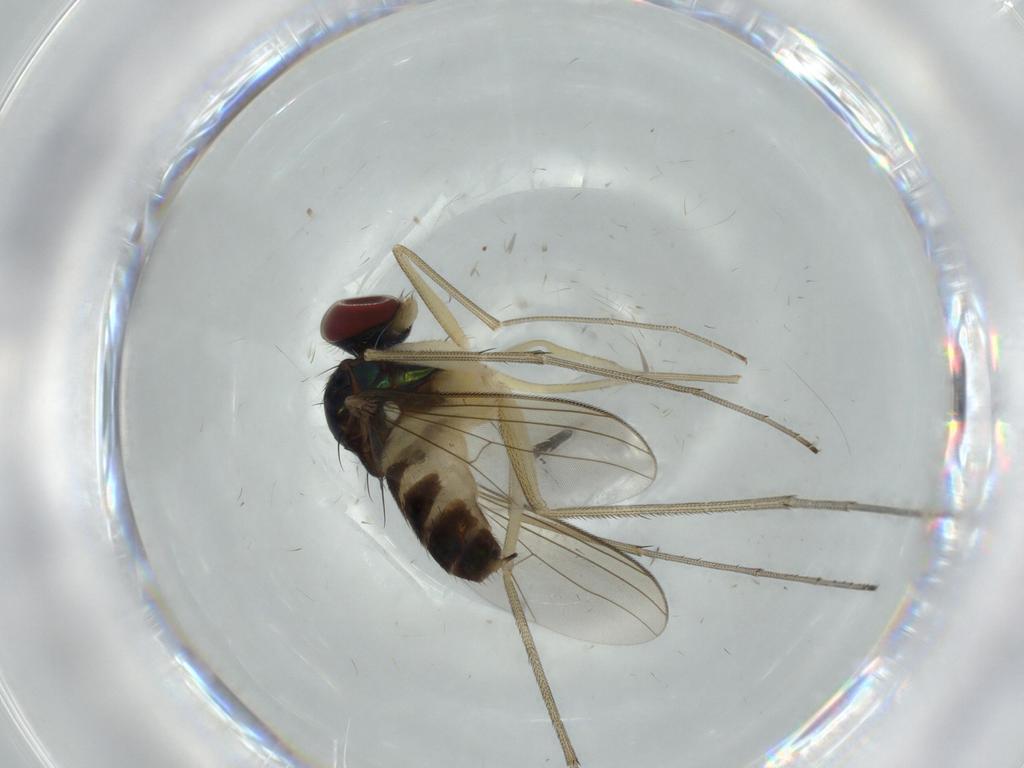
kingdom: Animalia
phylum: Arthropoda
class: Insecta
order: Diptera
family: Dolichopodidae
